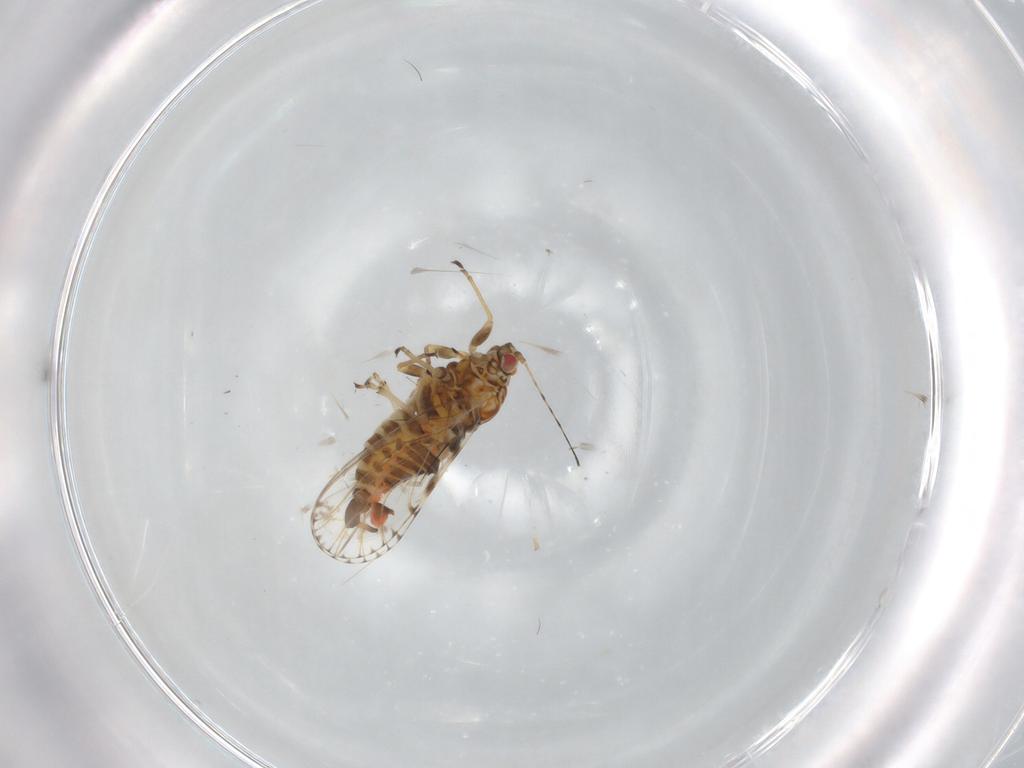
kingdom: Animalia
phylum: Arthropoda
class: Insecta
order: Hemiptera
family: Psyllidae
